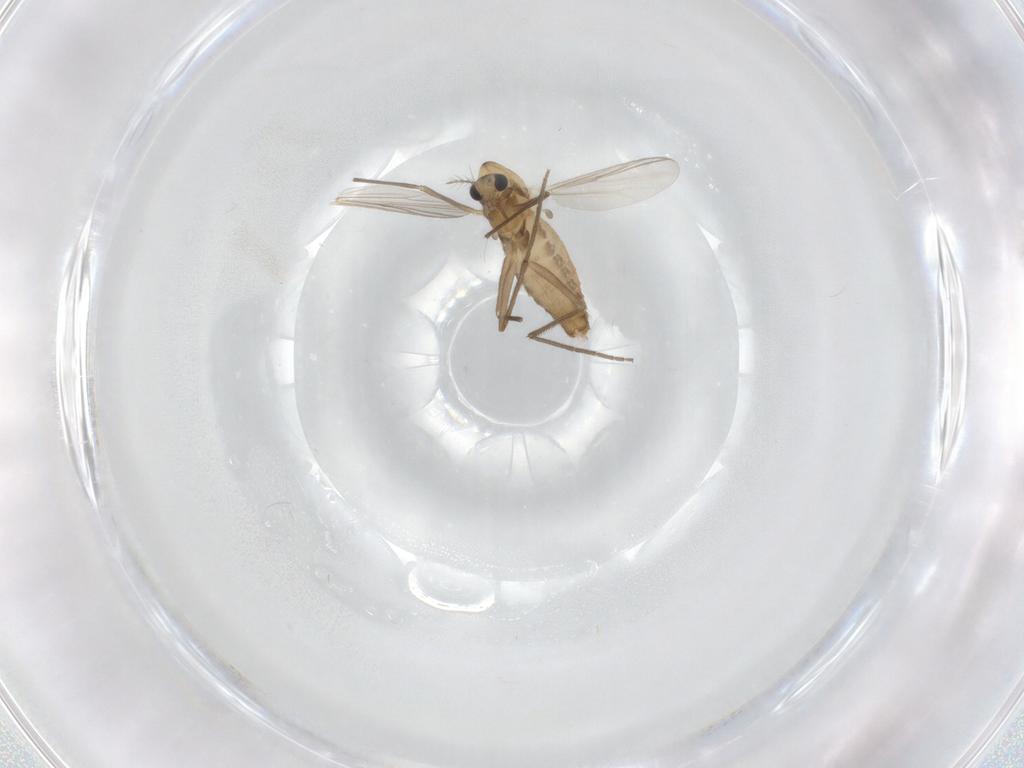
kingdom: Animalia
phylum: Arthropoda
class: Insecta
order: Diptera
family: Chironomidae
